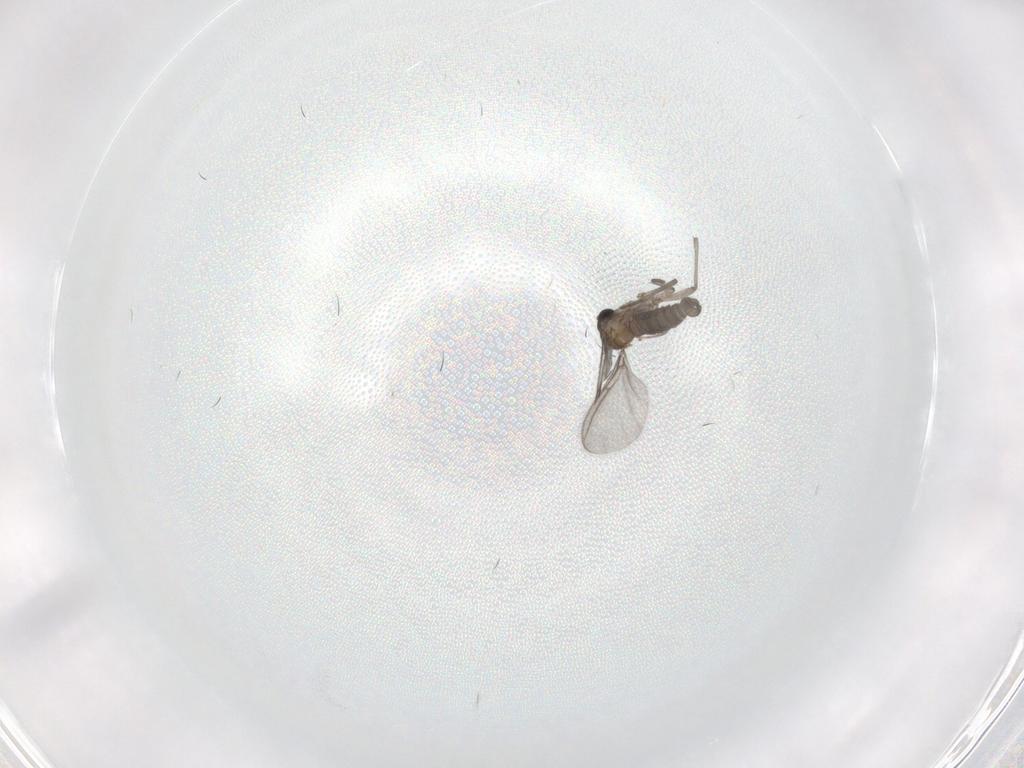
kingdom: Animalia
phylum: Arthropoda
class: Insecta
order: Diptera
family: Sciaridae
